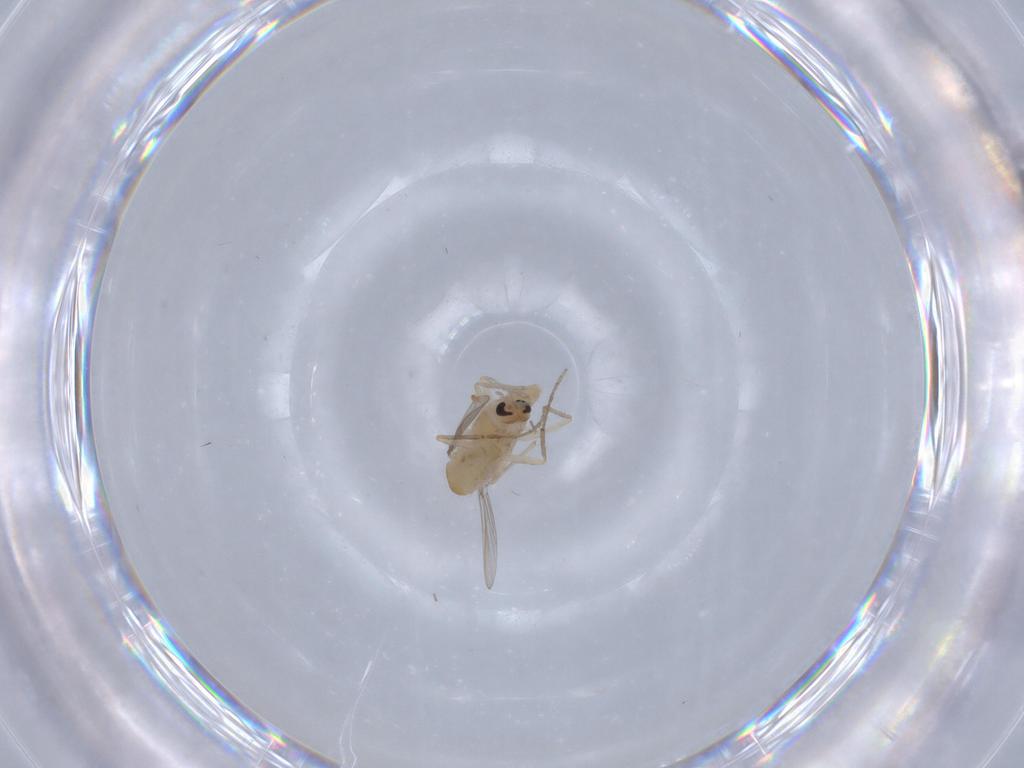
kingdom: Animalia
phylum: Arthropoda
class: Insecta
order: Diptera
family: Chironomidae
